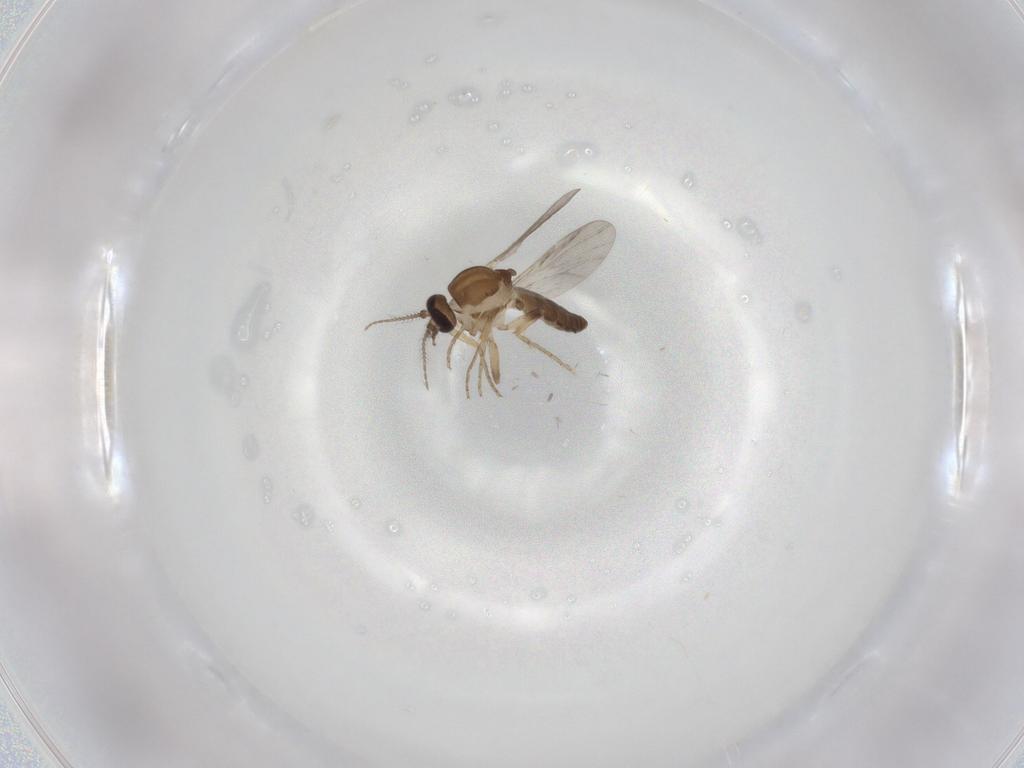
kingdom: Animalia
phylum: Arthropoda
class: Insecta
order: Diptera
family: Ceratopogonidae
